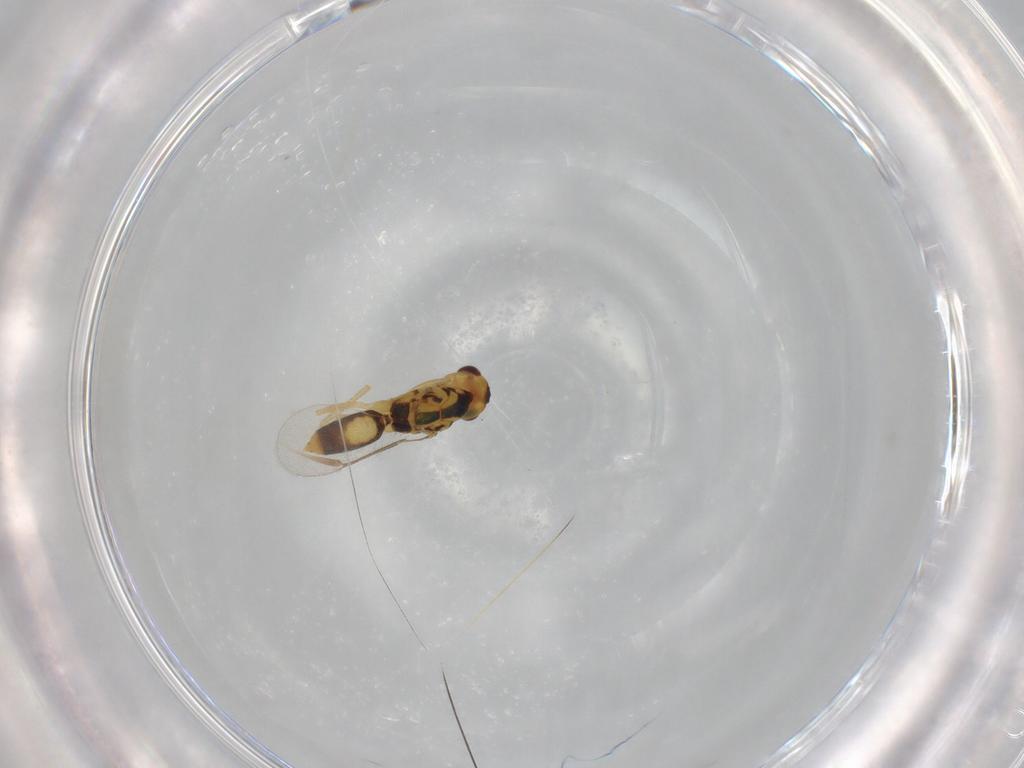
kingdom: Animalia
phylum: Arthropoda
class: Insecta
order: Hymenoptera
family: Eulophidae
